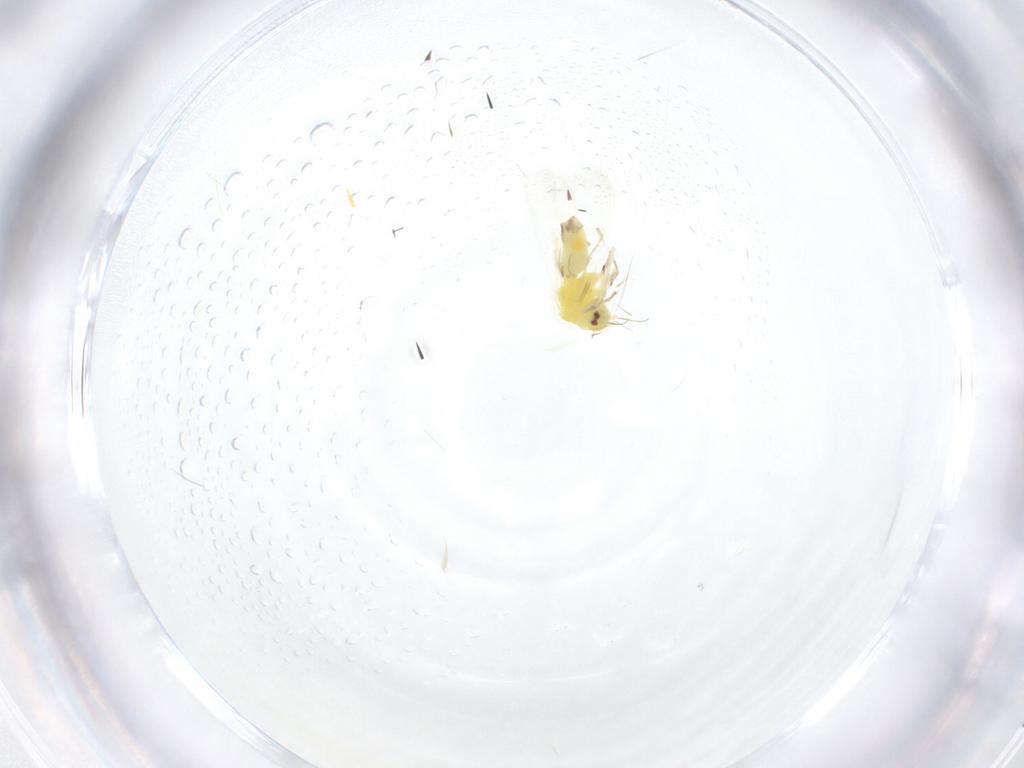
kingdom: Animalia
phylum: Arthropoda
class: Insecta
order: Hemiptera
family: Aleyrodidae
